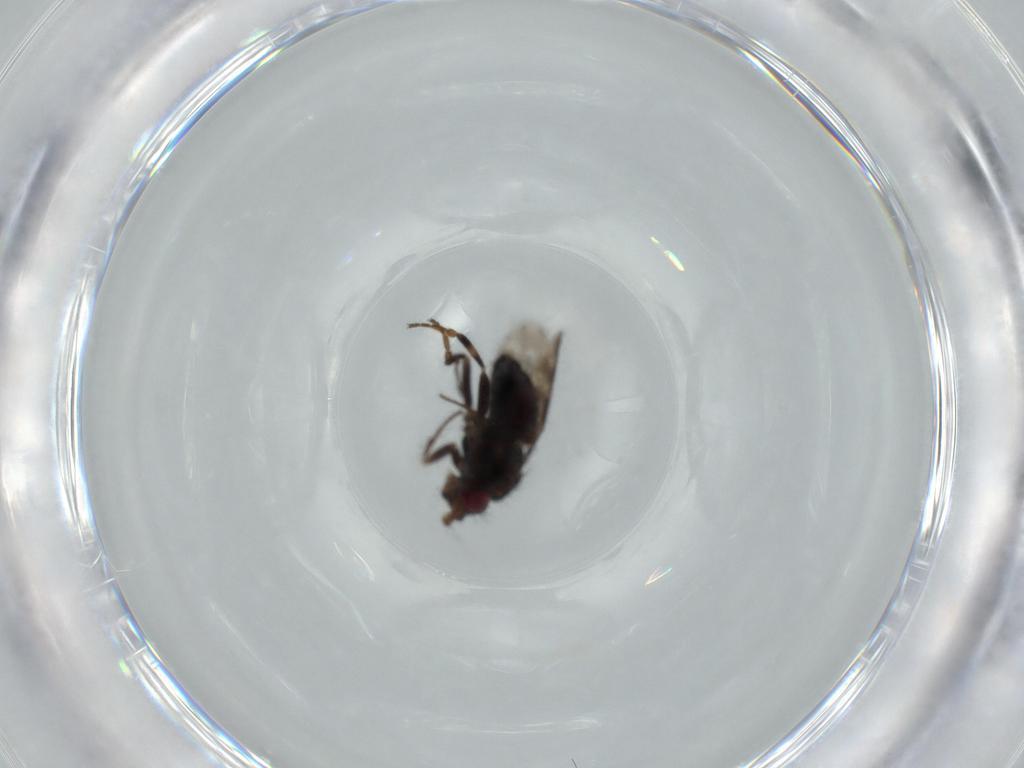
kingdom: Animalia
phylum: Arthropoda
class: Insecta
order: Diptera
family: Sphaeroceridae
